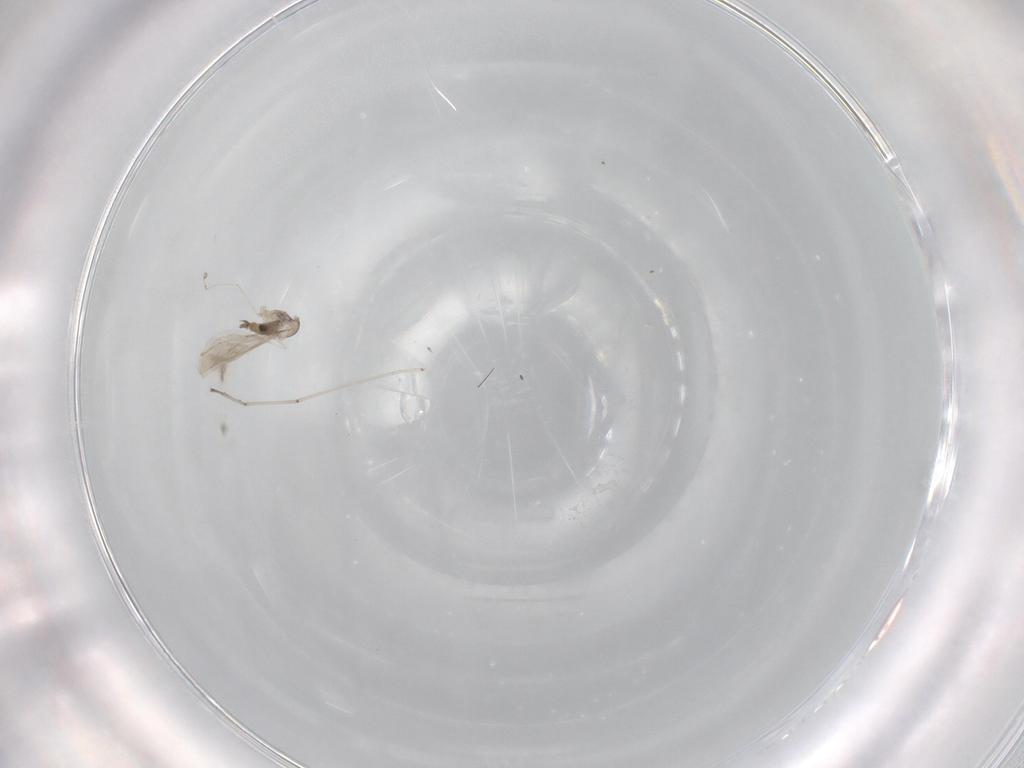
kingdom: Animalia
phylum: Arthropoda
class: Insecta
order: Diptera
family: Cecidomyiidae
